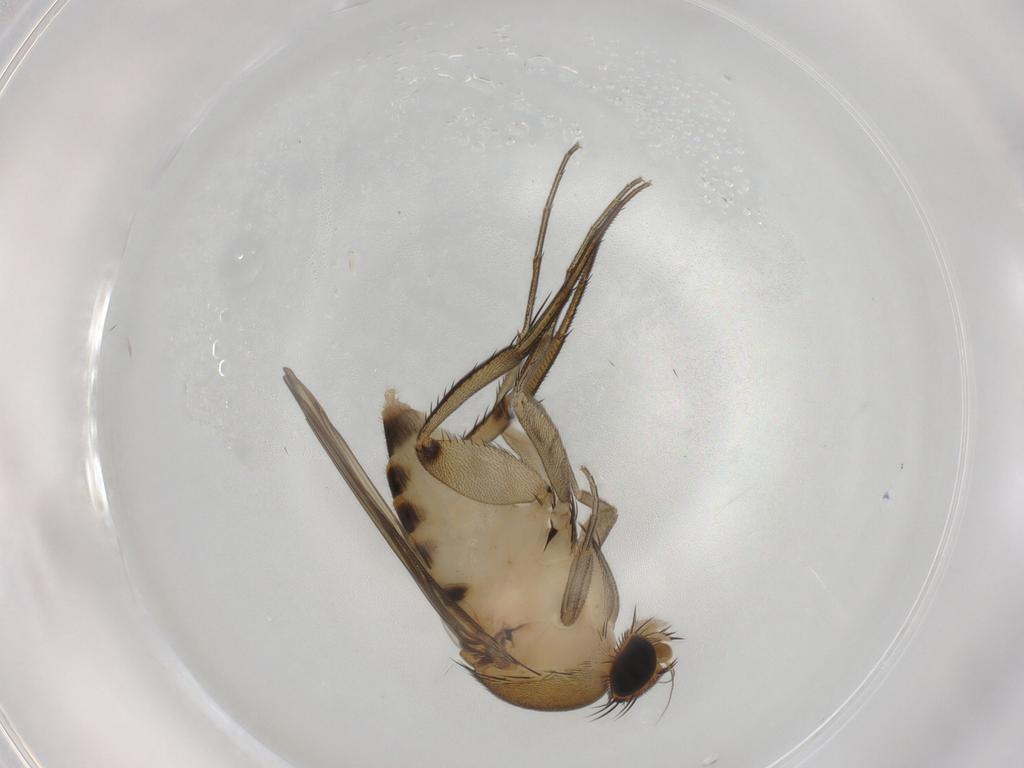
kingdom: Animalia
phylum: Arthropoda
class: Insecta
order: Diptera
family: Phoridae
